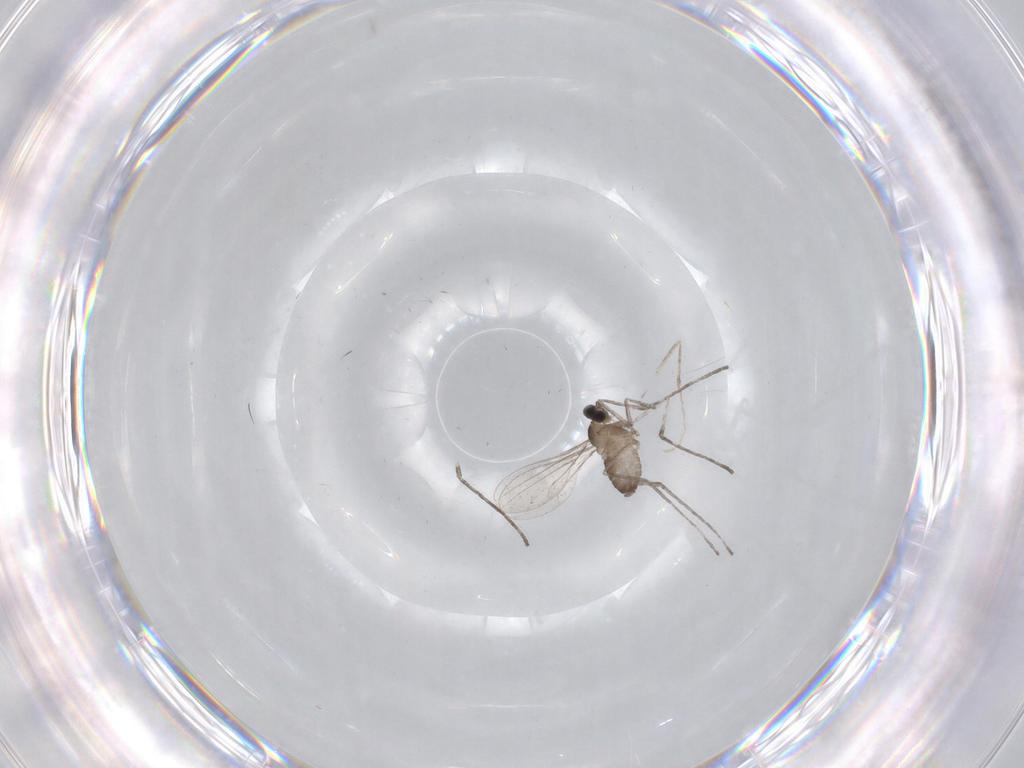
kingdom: Animalia
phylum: Arthropoda
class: Insecta
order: Diptera
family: Cecidomyiidae
